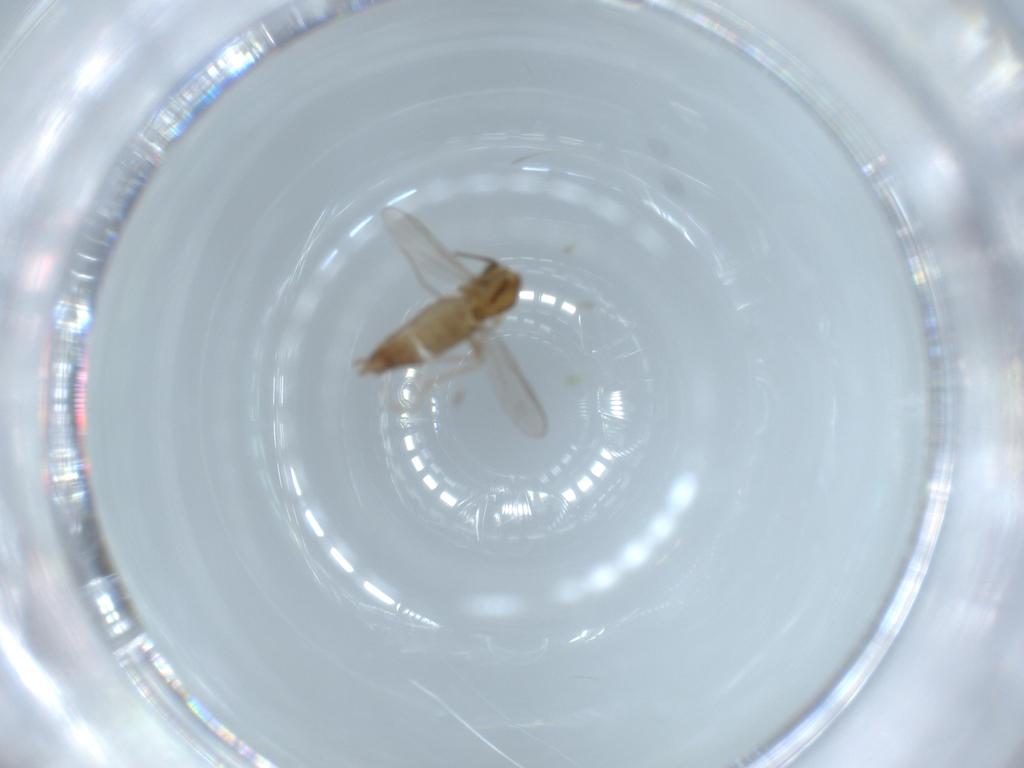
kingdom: Animalia
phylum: Arthropoda
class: Insecta
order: Diptera
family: Chironomidae
